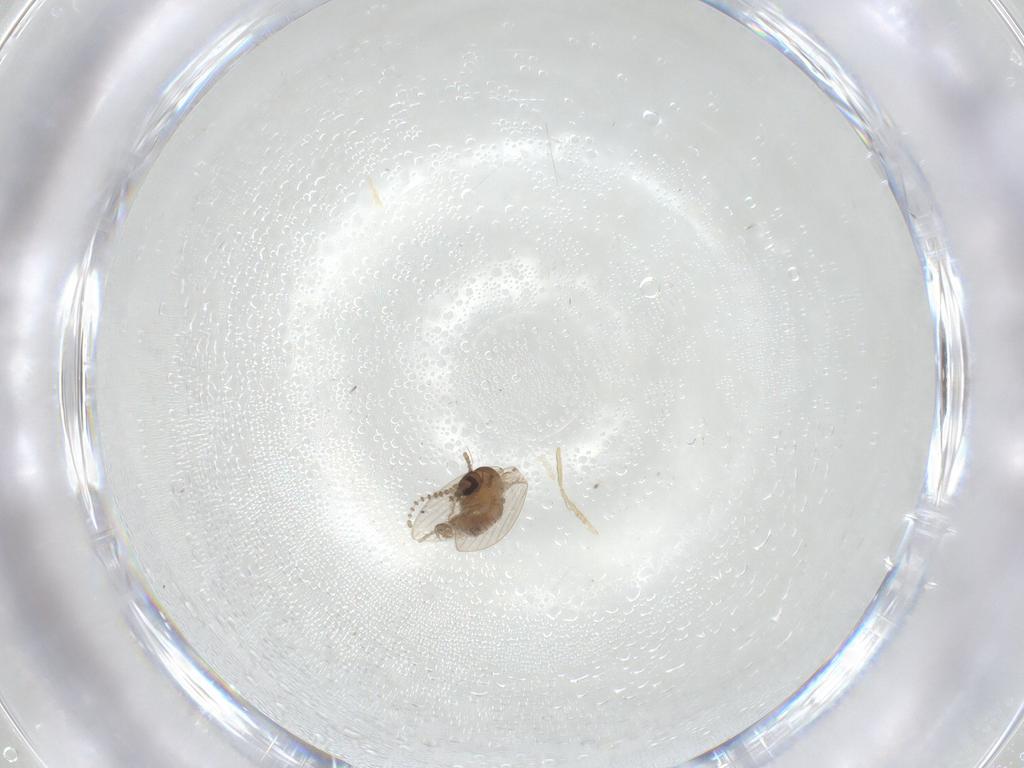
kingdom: Animalia
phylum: Arthropoda
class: Insecta
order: Diptera
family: Psychodidae
